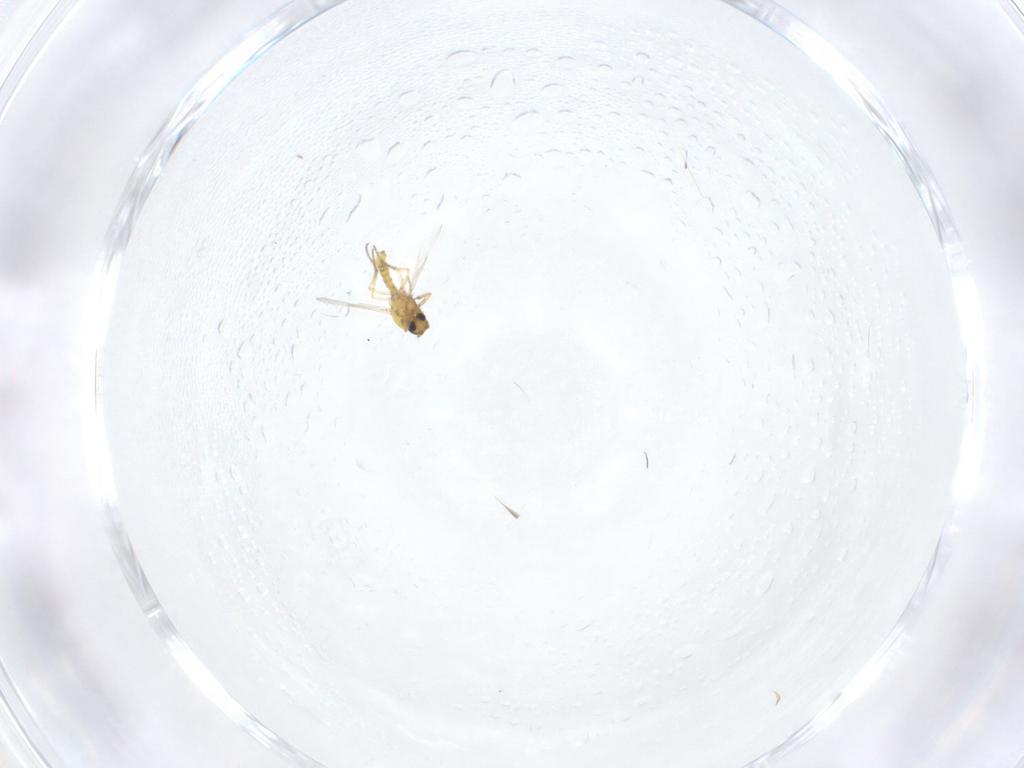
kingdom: Animalia
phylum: Arthropoda
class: Insecta
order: Diptera
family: Ceratopogonidae
